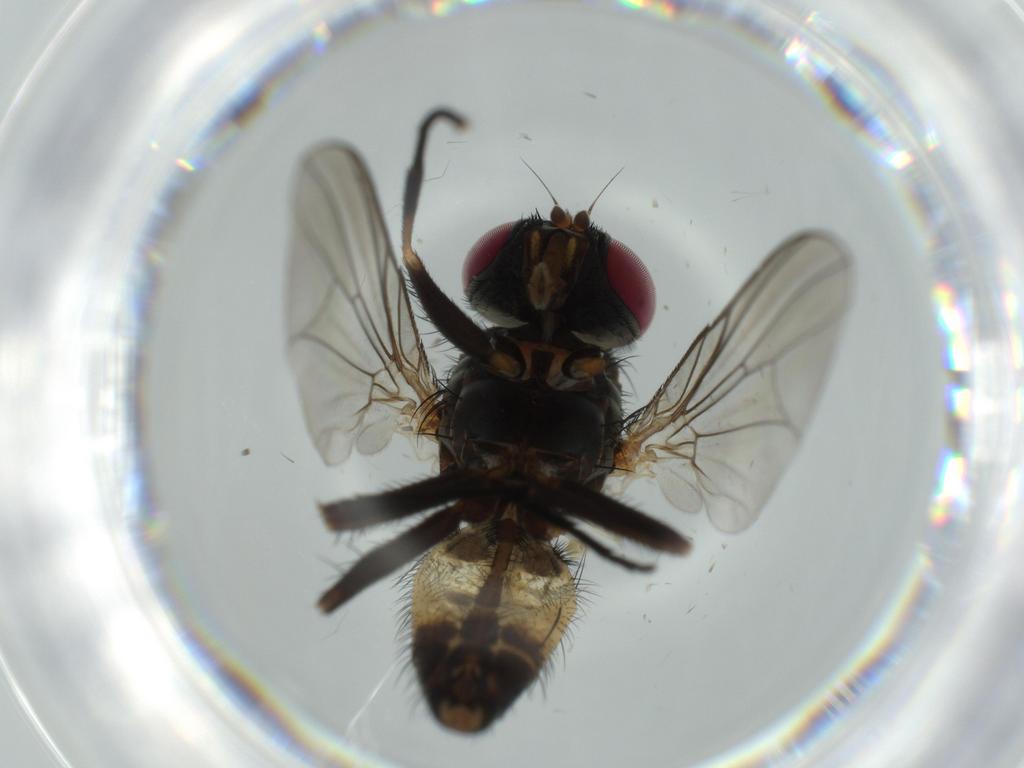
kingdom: Animalia
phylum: Arthropoda
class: Insecta
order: Diptera
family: Fannia
